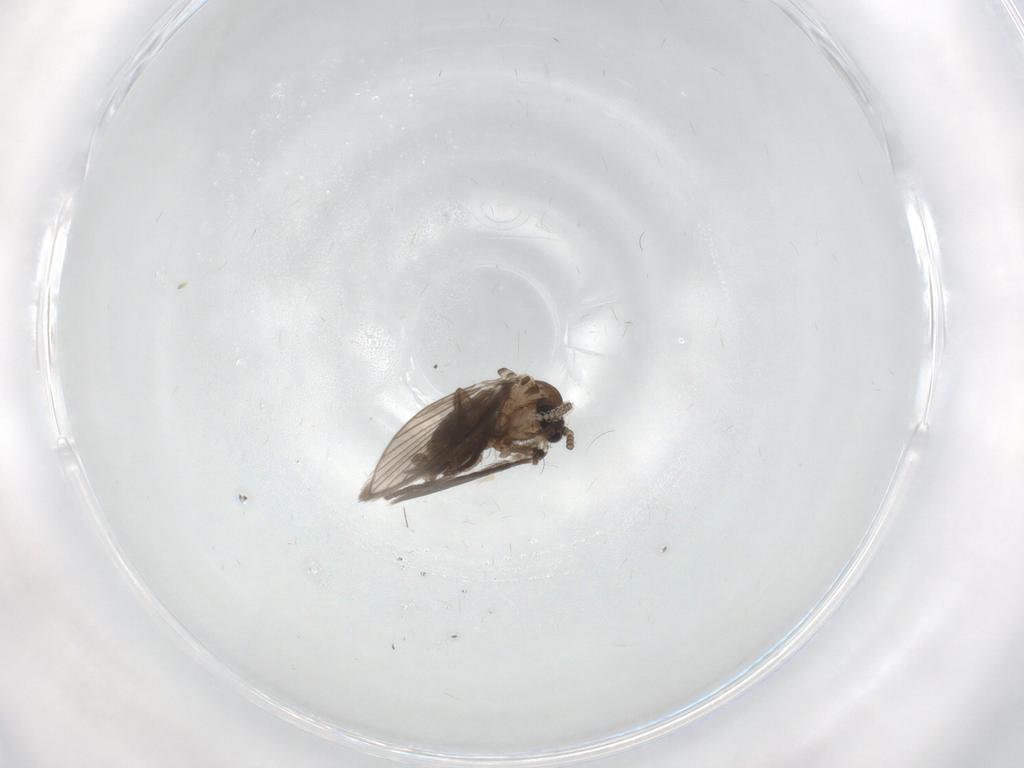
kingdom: Animalia
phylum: Arthropoda
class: Insecta
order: Diptera
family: Psychodidae
